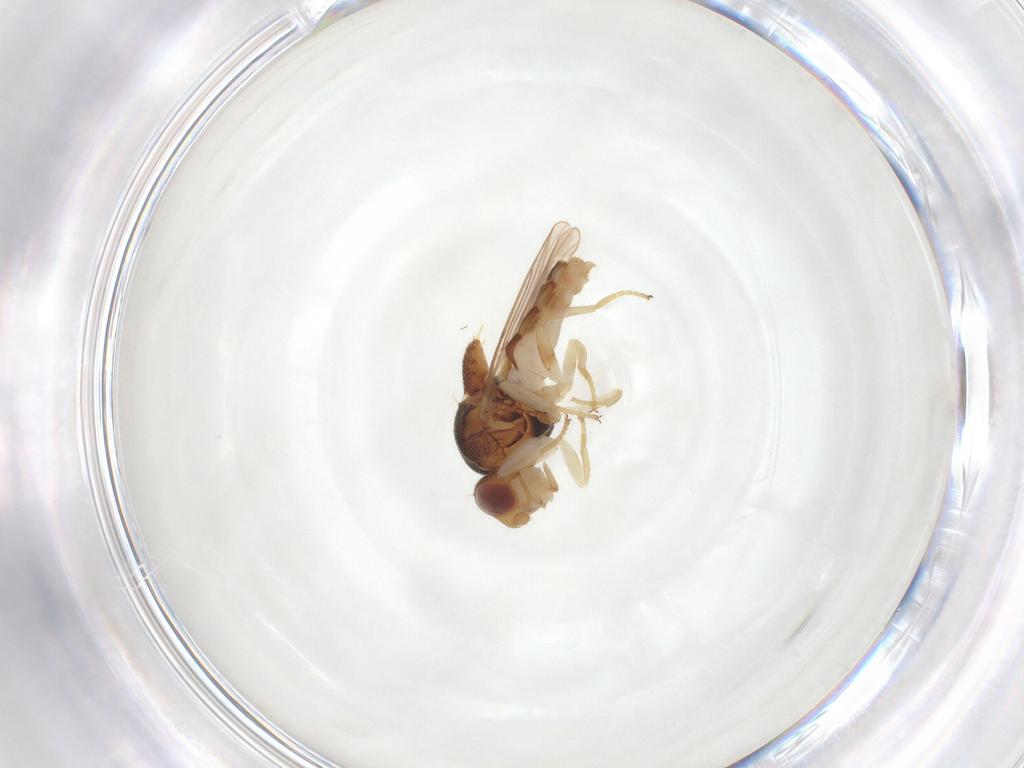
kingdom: Animalia
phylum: Arthropoda
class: Insecta
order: Diptera
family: Chloropidae
